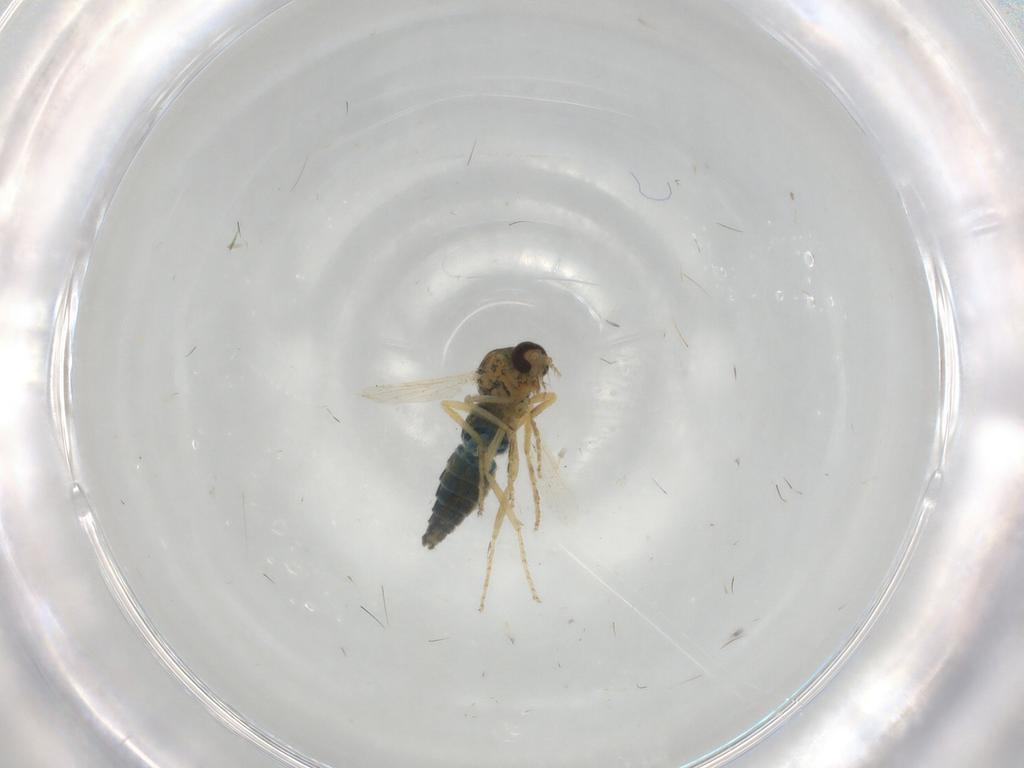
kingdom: Animalia
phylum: Arthropoda
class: Insecta
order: Diptera
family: Ceratopogonidae
